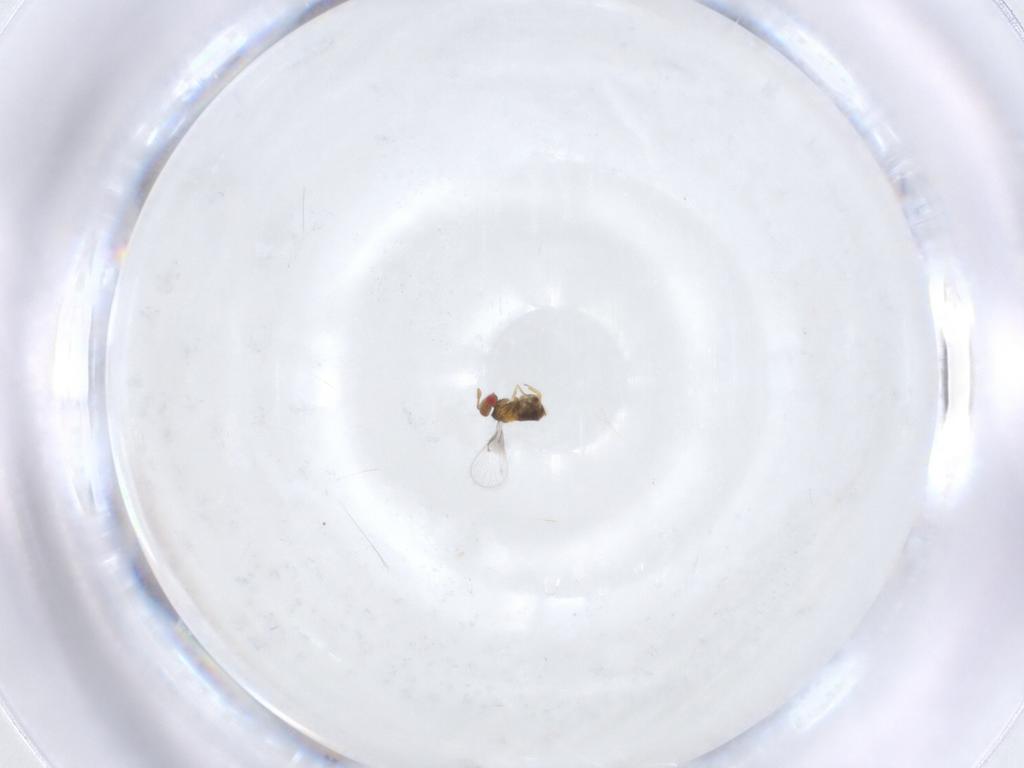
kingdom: Animalia
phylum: Arthropoda
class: Insecta
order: Hymenoptera
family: Trichogrammatidae
